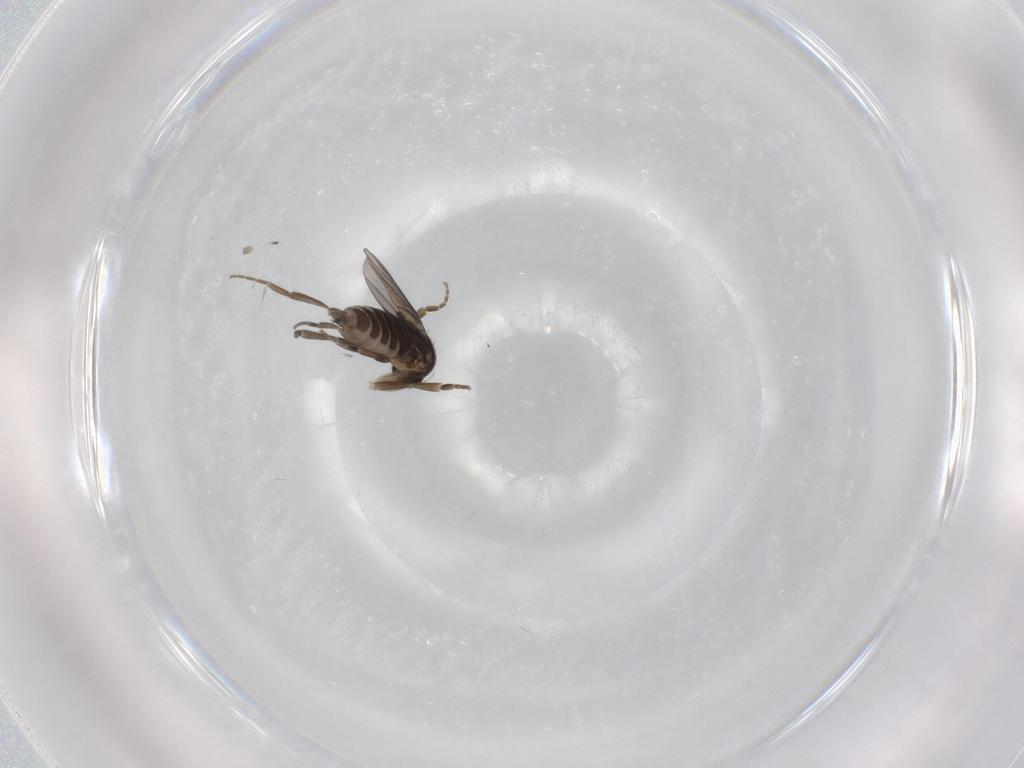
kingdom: Animalia
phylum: Arthropoda
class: Insecta
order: Diptera
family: Phoridae
